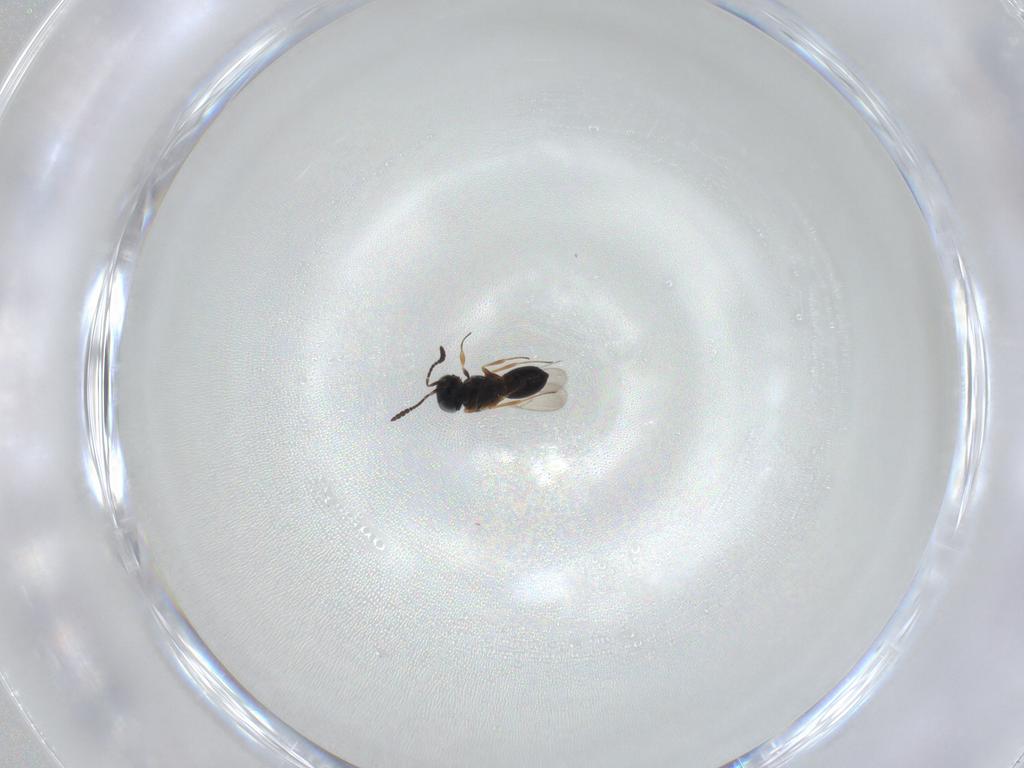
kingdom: Animalia
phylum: Arthropoda
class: Insecta
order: Hymenoptera
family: Scelionidae
